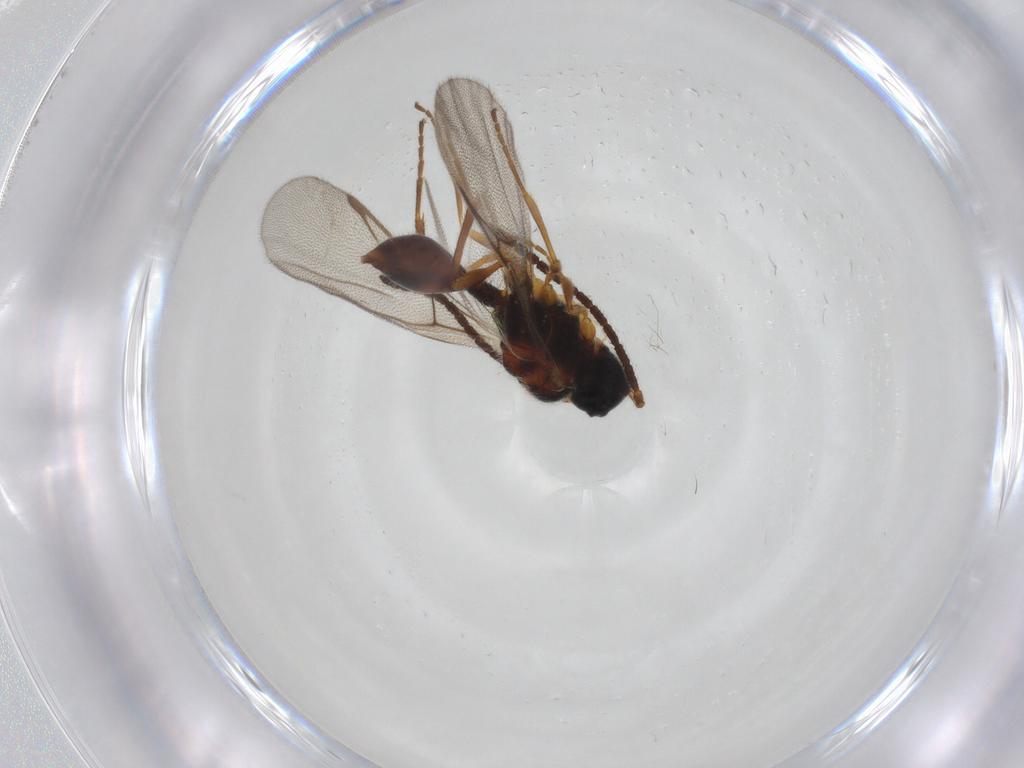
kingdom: Animalia
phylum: Arthropoda
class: Insecta
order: Hymenoptera
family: Diapriidae
